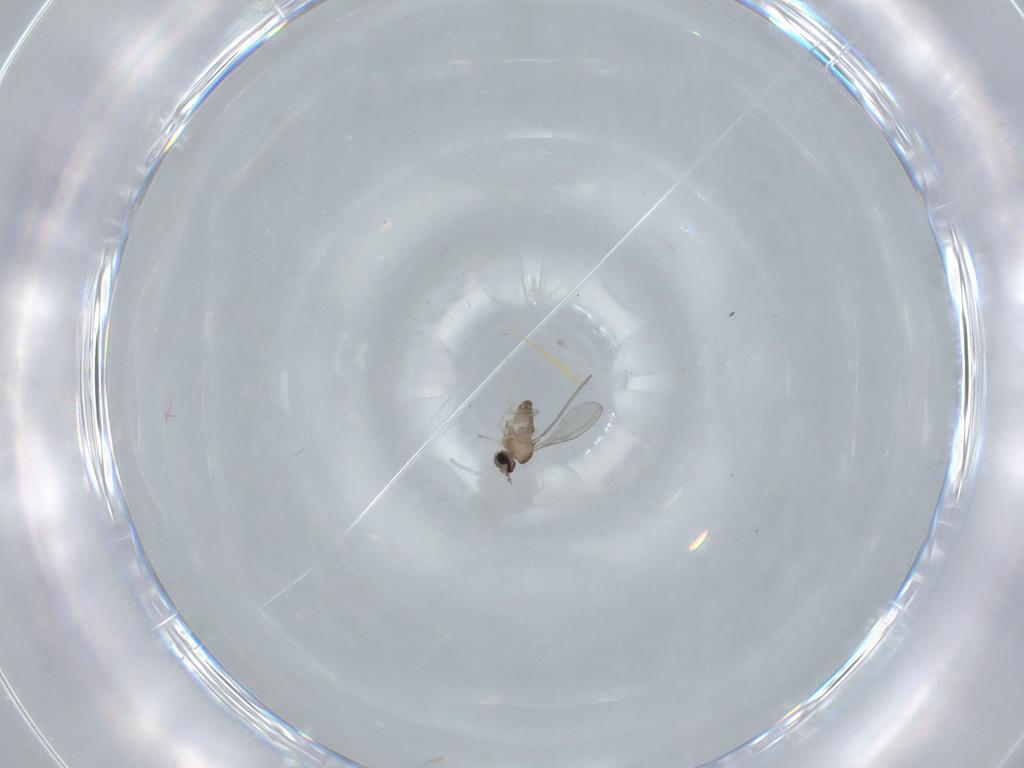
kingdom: Animalia
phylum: Arthropoda
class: Insecta
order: Diptera
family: Cecidomyiidae
